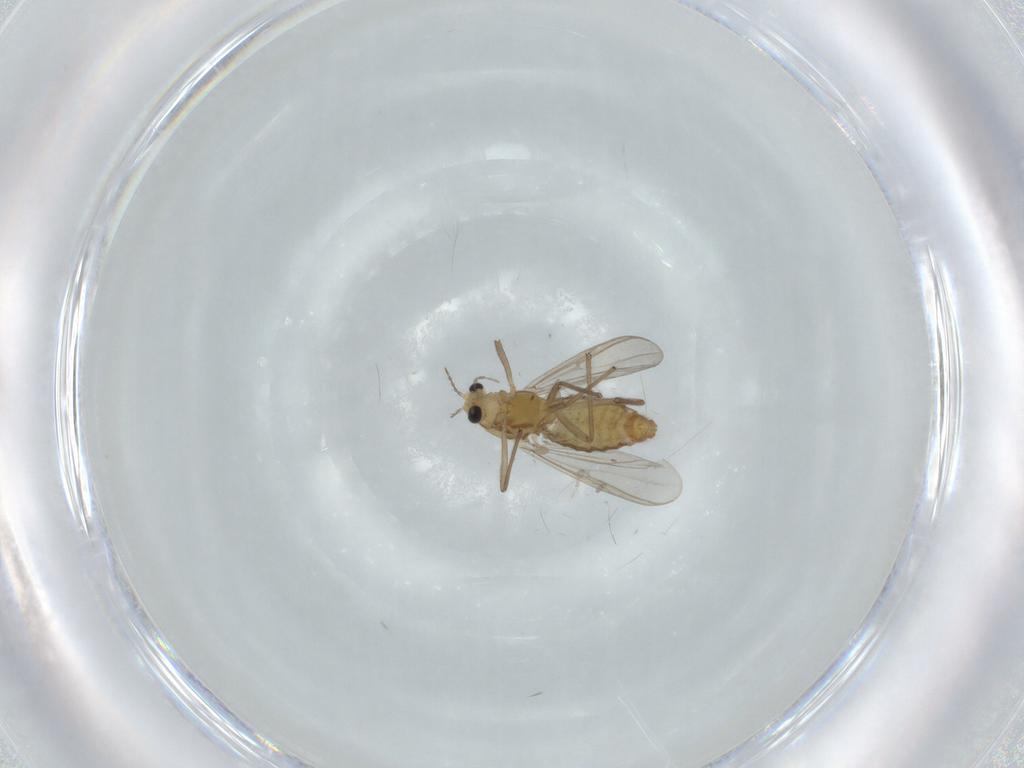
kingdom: Animalia
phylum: Arthropoda
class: Insecta
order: Diptera
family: Chironomidae
